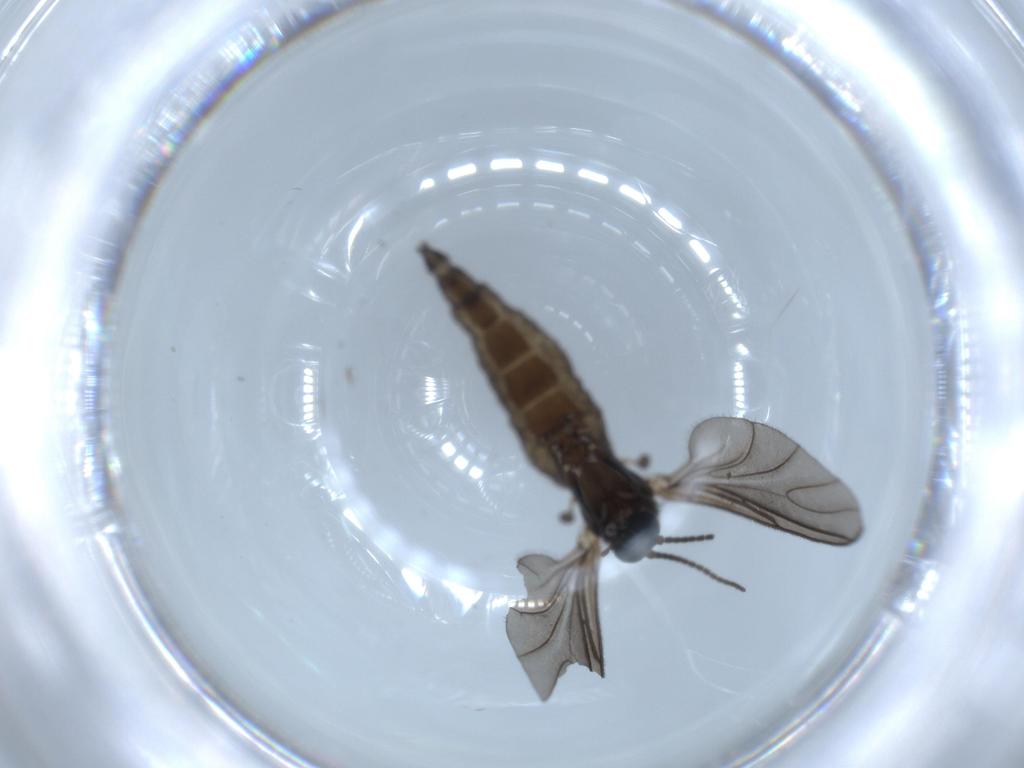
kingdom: Animalia
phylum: Arthropoda
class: Insecta
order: Diptera
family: Sciaridae
